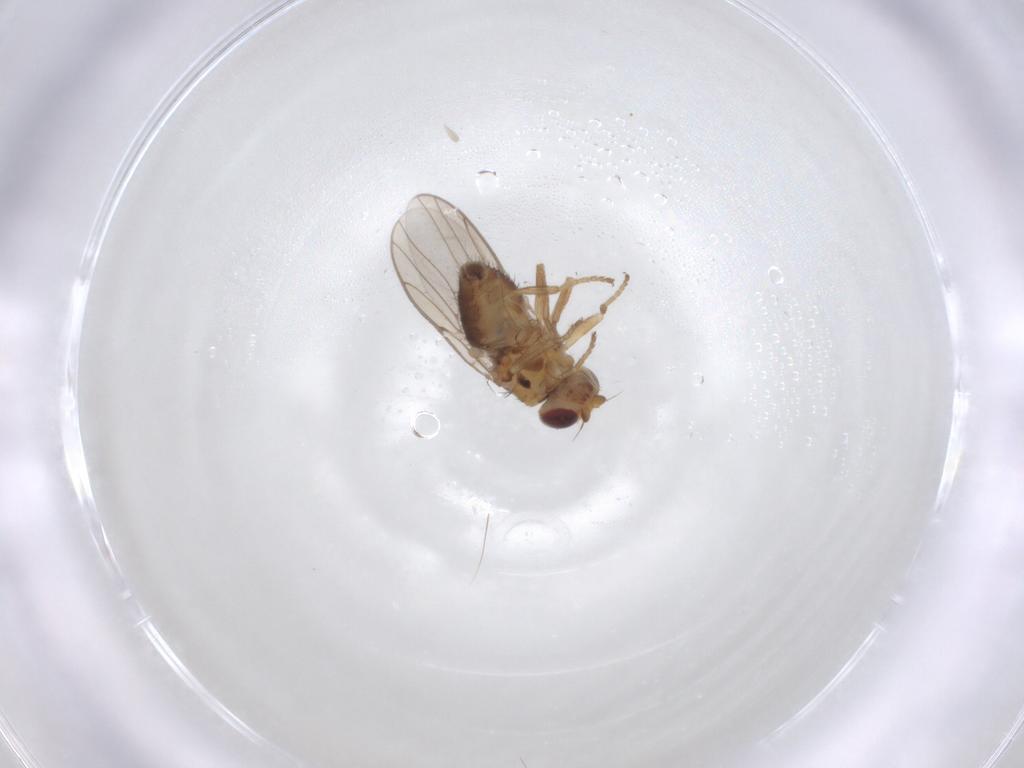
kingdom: Animalia
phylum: Arthropoda
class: Insecta
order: Diptera
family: Chloropidae
